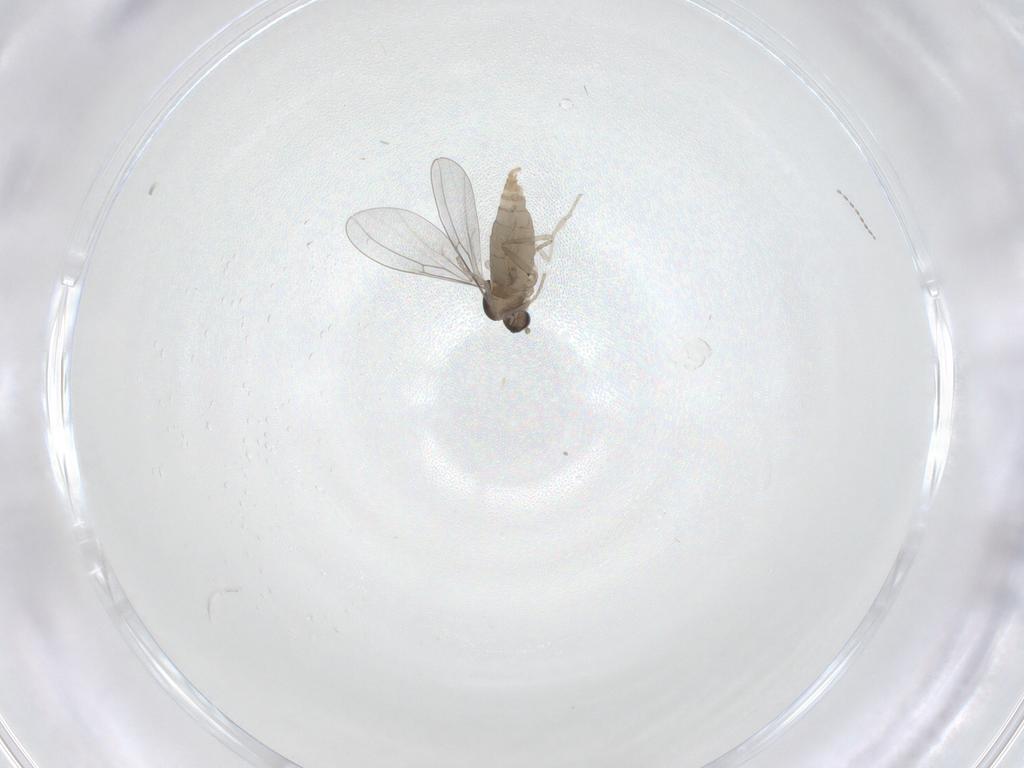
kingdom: Animalia
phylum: Arthropoda
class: Insecta
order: Diptera
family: Cecidomyiidae
